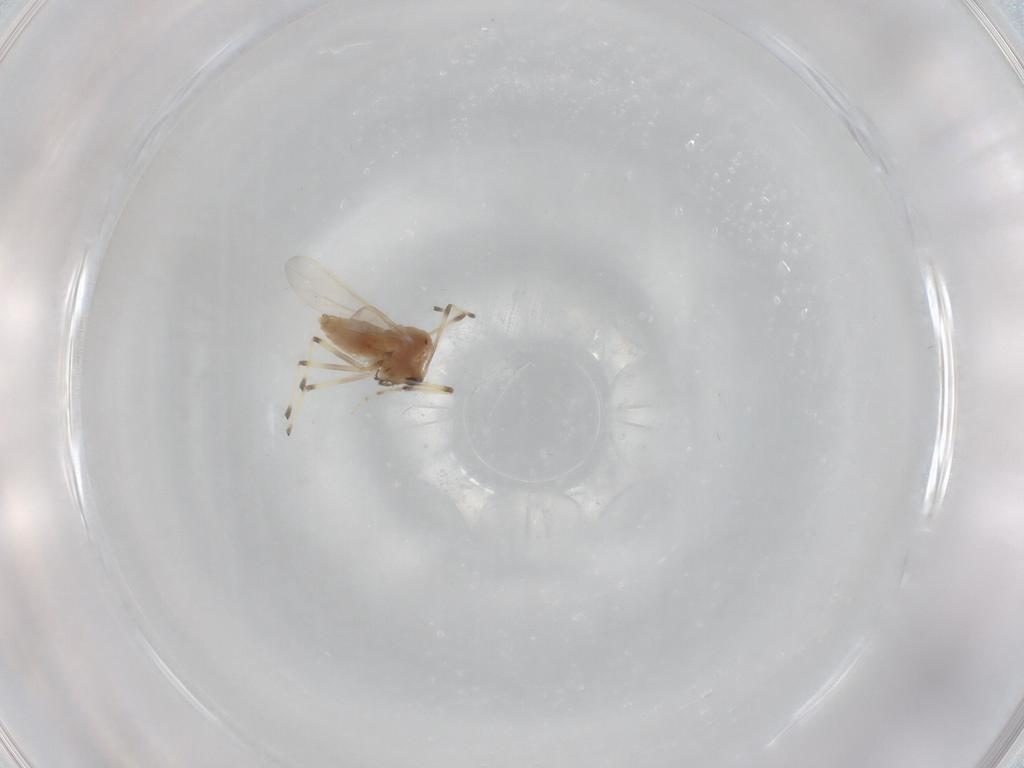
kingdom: Animalia
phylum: Arthropoda
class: Insecta
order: Diptera
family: Chironomidae
